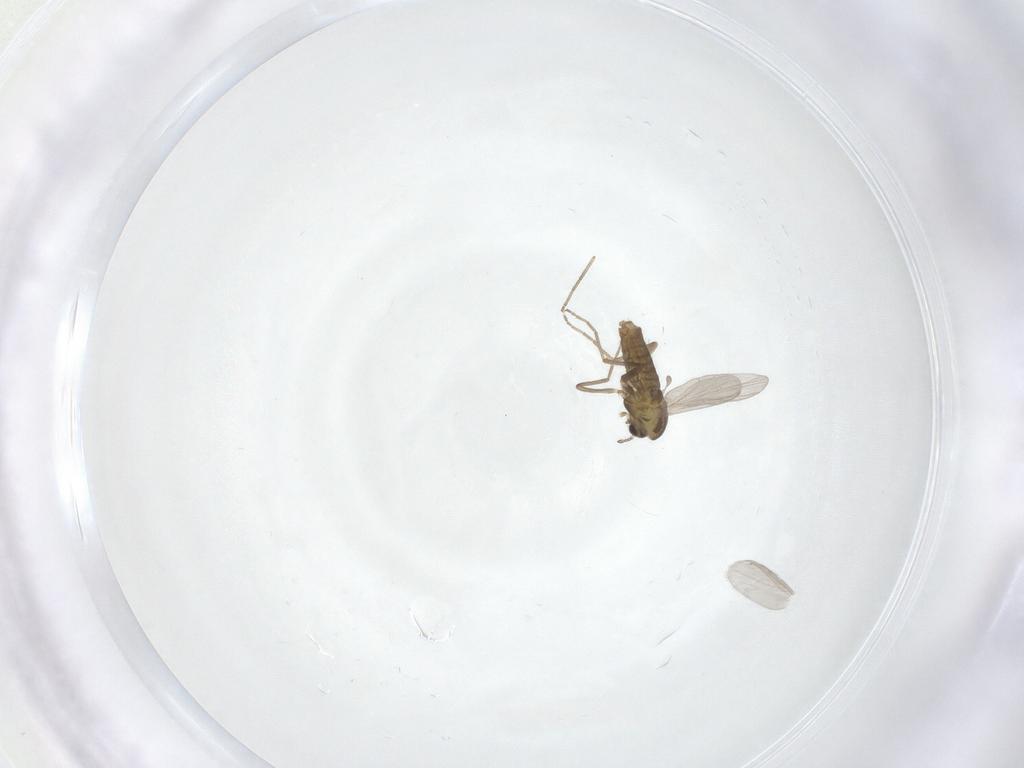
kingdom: Animalia
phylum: Arthropoda
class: Insecta
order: Diptera
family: Chironomidae
